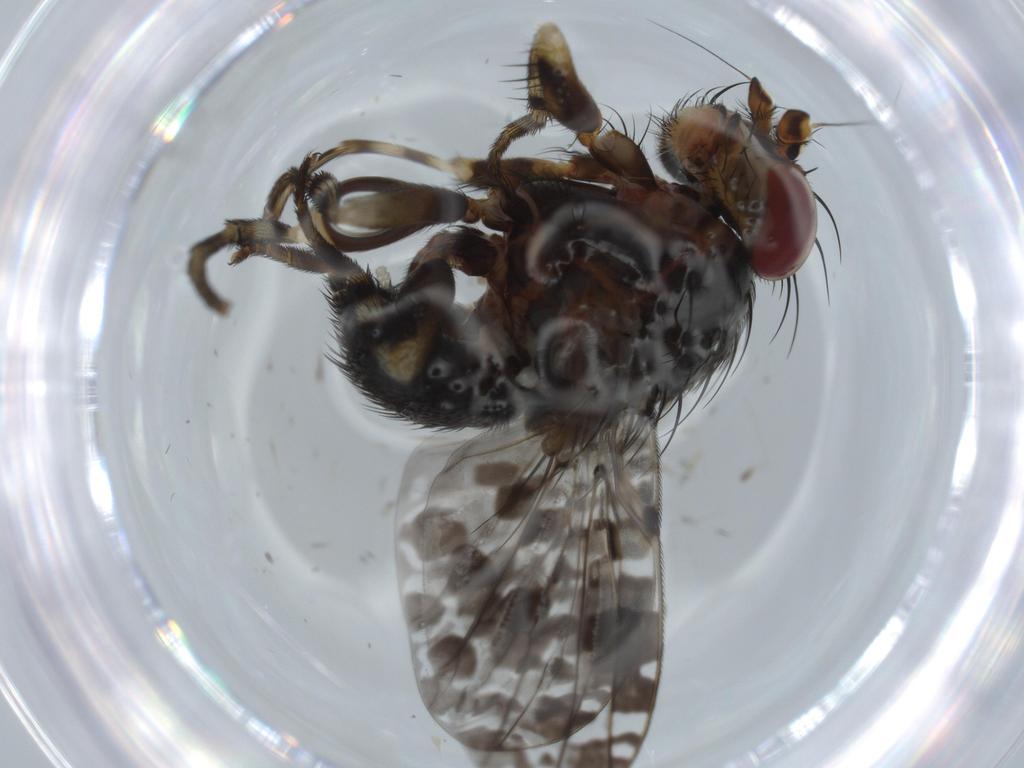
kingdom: Animalia
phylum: Arthropoda
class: Insecta
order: Diptera
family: Odiniidae
